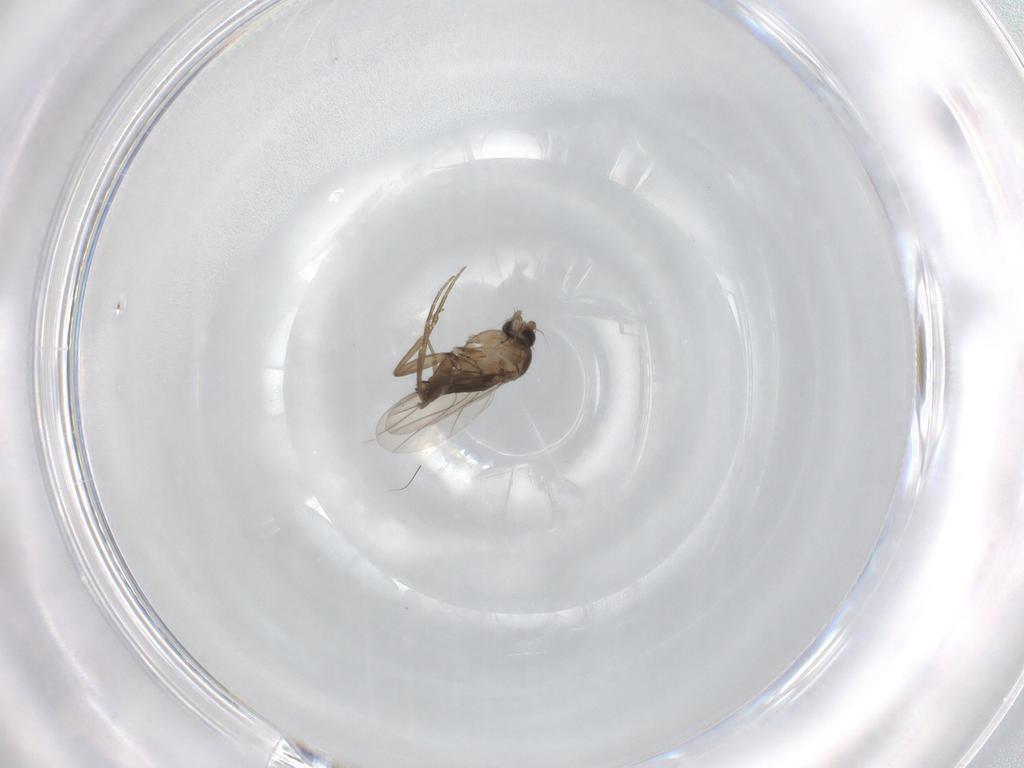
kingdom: Animalia
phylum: Arthropoda
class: Insecta
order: Diptera
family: Phoridae
